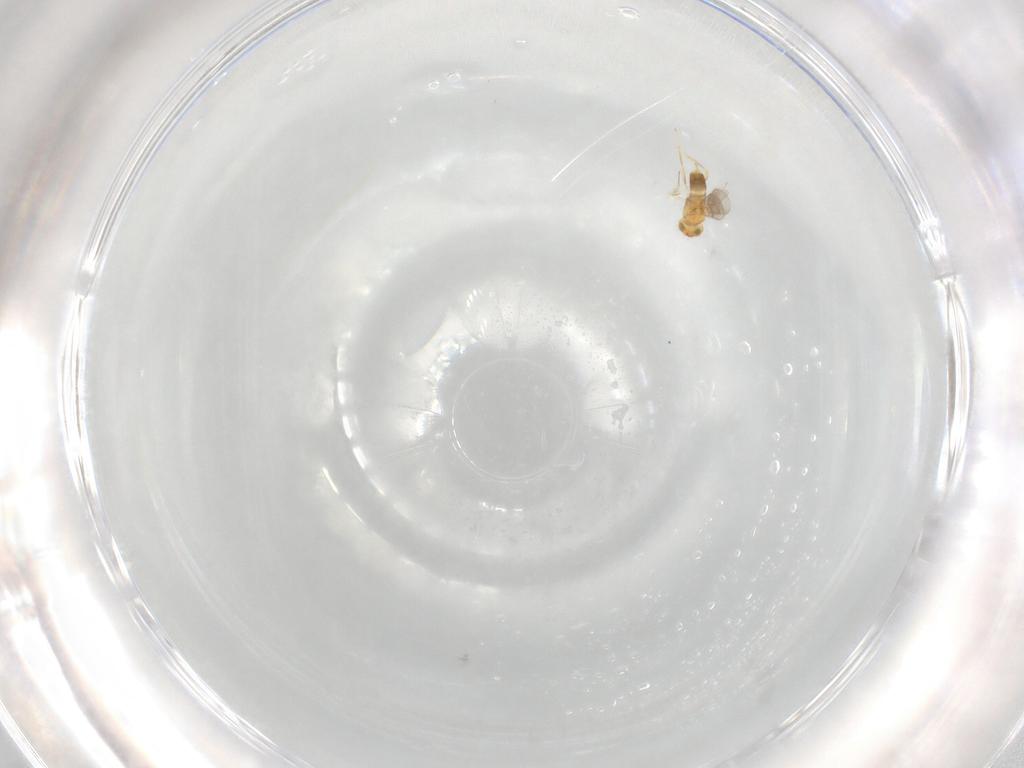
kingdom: Animalia
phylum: Arthropoda
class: Insecta
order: Hymenoptera
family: Aphelinidae
